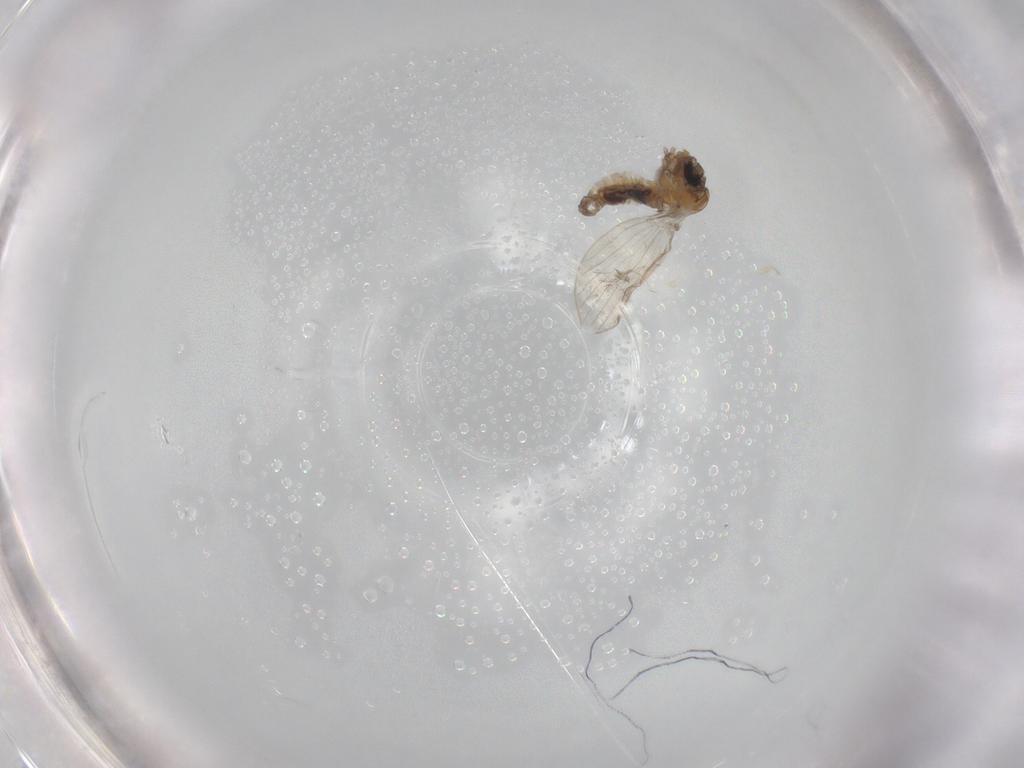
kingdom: Animalia
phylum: Arthropoda
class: Insecta
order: Diptera
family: Psychodidae
